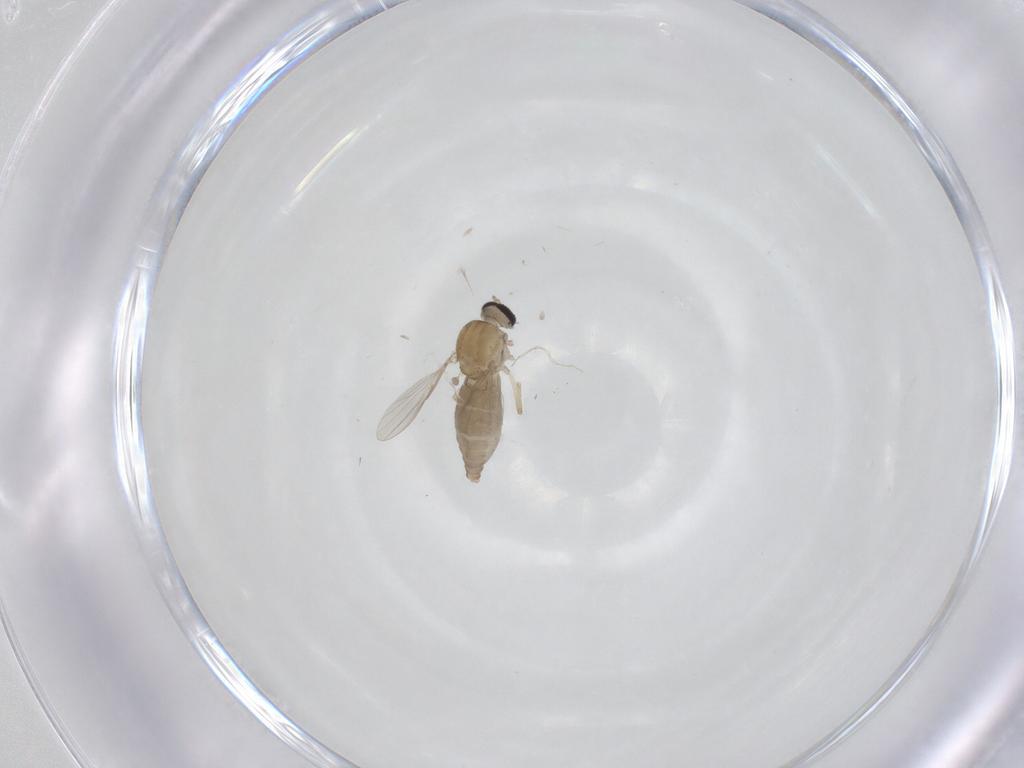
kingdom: Animalia
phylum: Arthropoda
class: Insecta
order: Diptera
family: Ceratopogonidae
